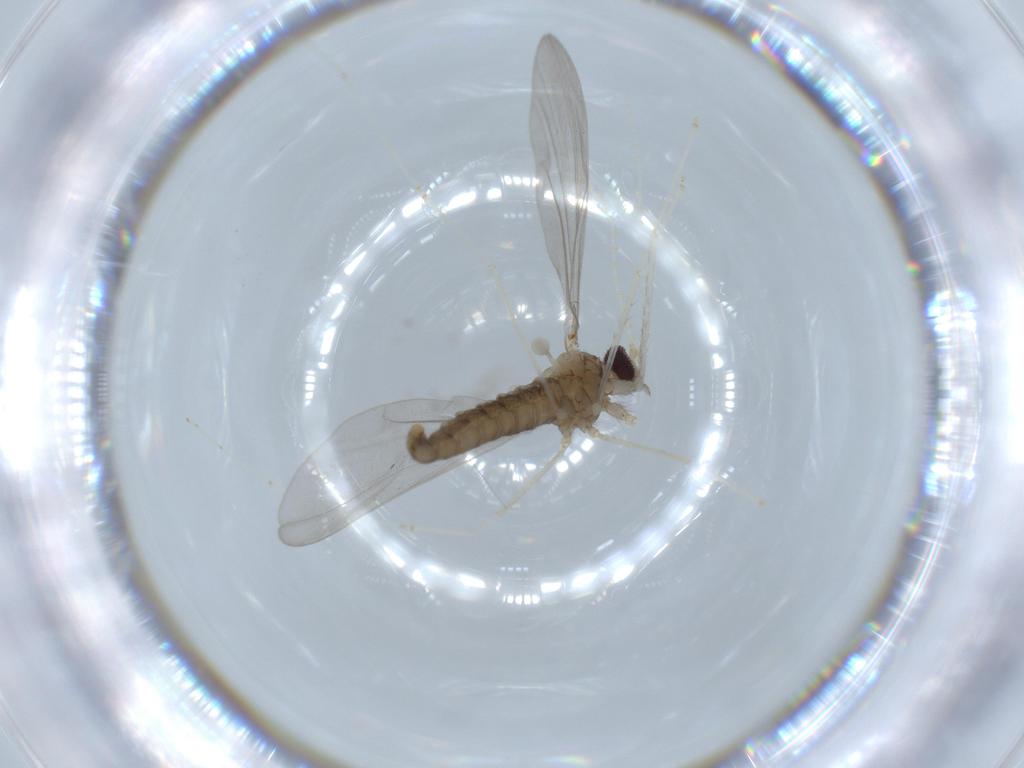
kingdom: Animalia
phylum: Arthropoda
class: Insecta
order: Diptera
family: Cecidomyiidae
